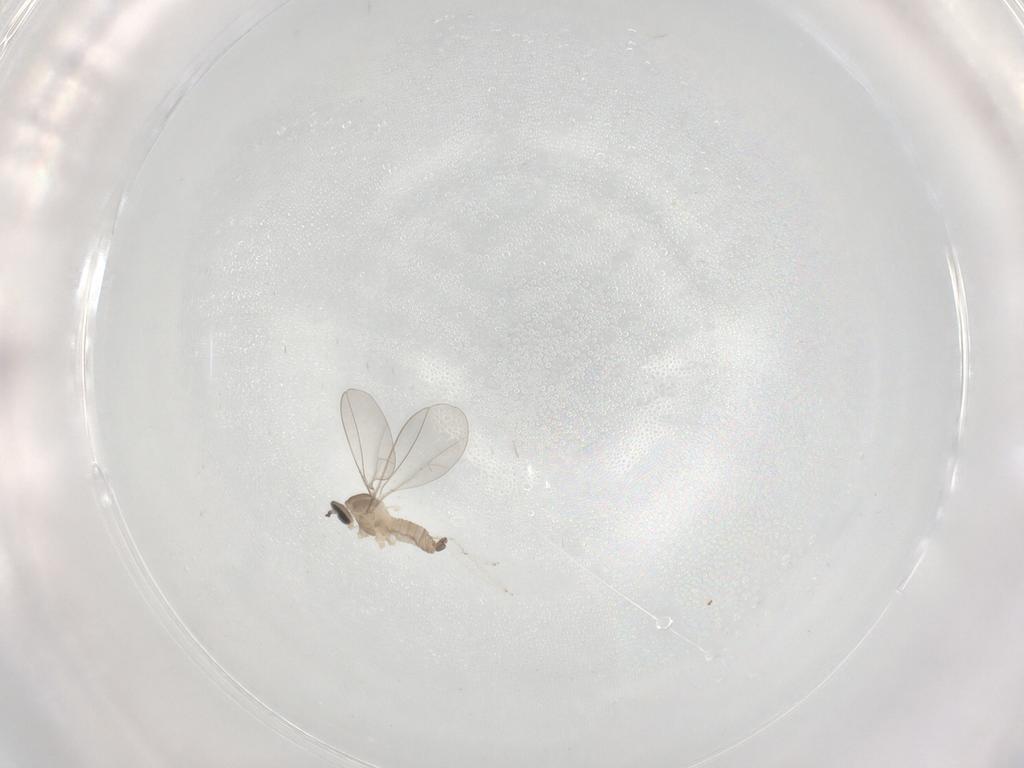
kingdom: Animalia
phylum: Arthropoda
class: Insecta
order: Diptera
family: Cecidomyiidae
